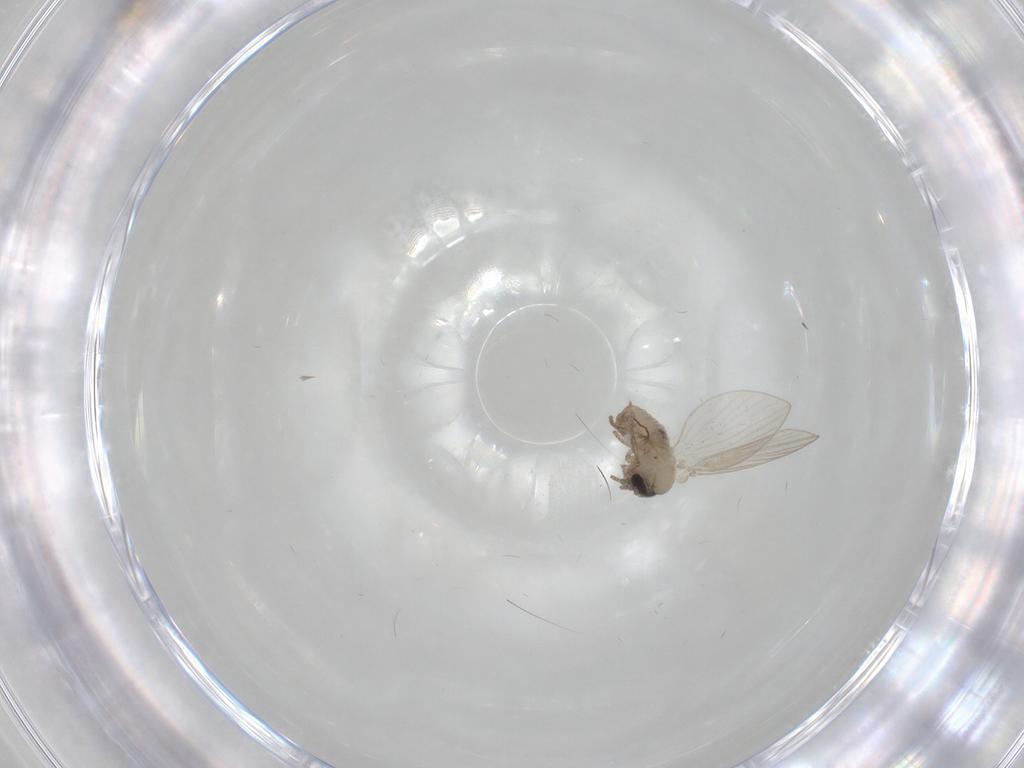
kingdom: Animalia
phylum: Arthropoda
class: Insecta
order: Diptera
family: Psychodidae
